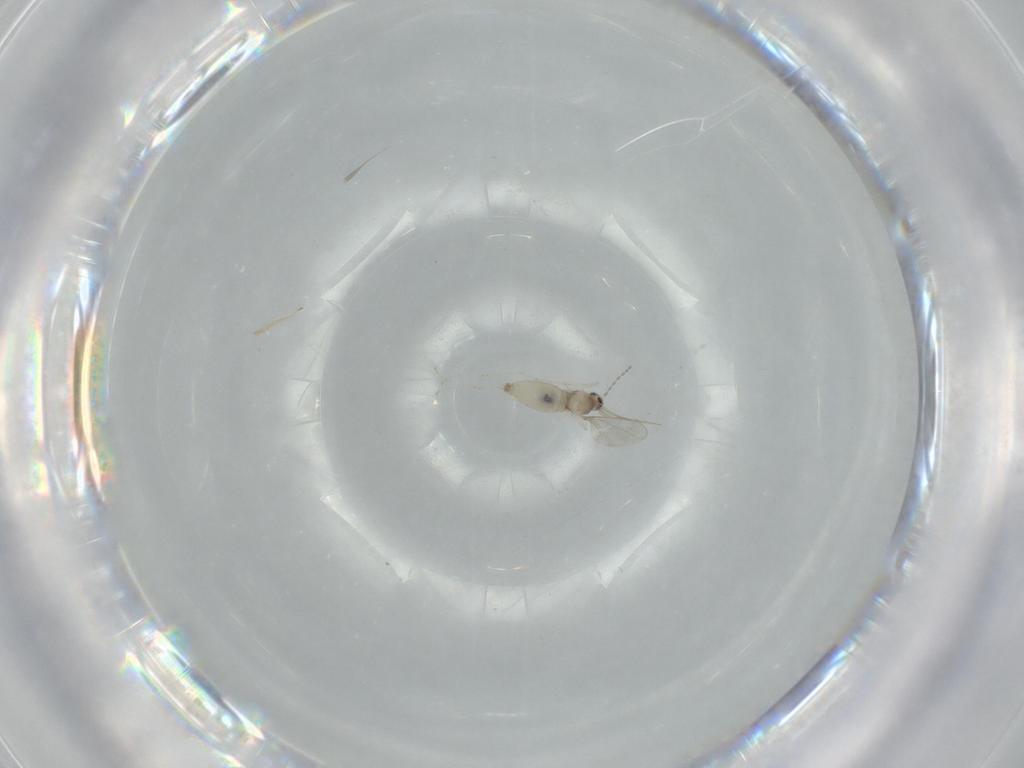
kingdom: Animalia
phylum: Arthropoda
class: Insecta
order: Diptera
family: Cecidomyiidae
